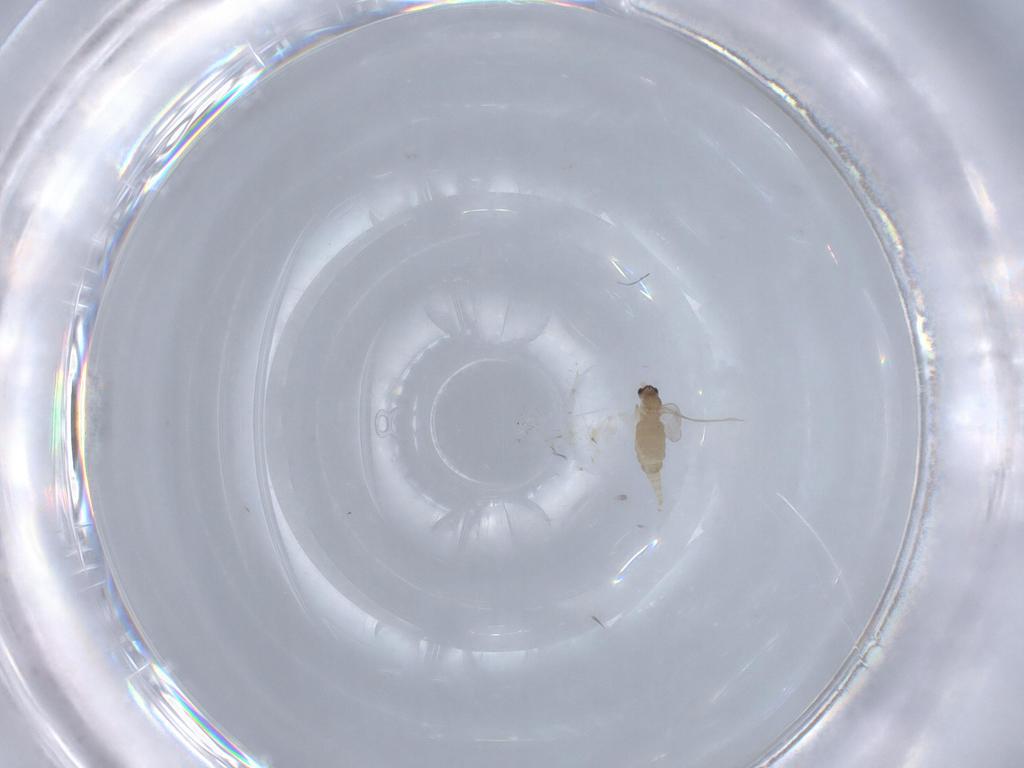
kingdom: Animalia
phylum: Arthropoda
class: Insecta
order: Diptera
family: Cecidomyiidae
